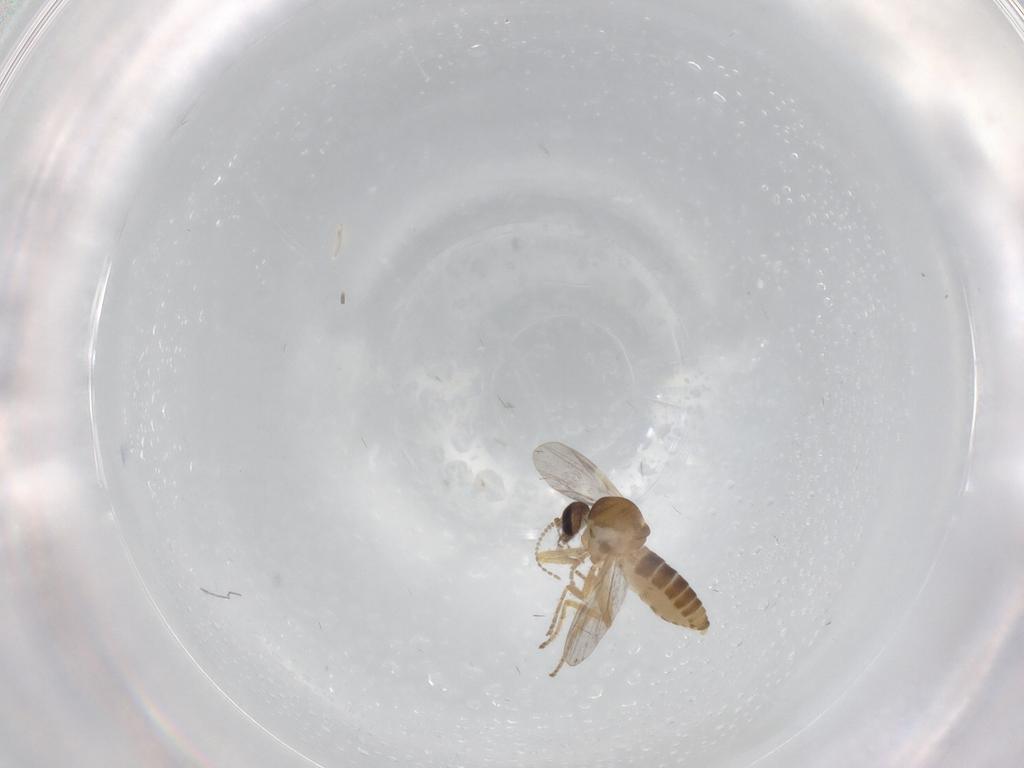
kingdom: Animalia
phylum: Arthropoda
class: Insecta
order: Diptera
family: Ceratopogonidae
